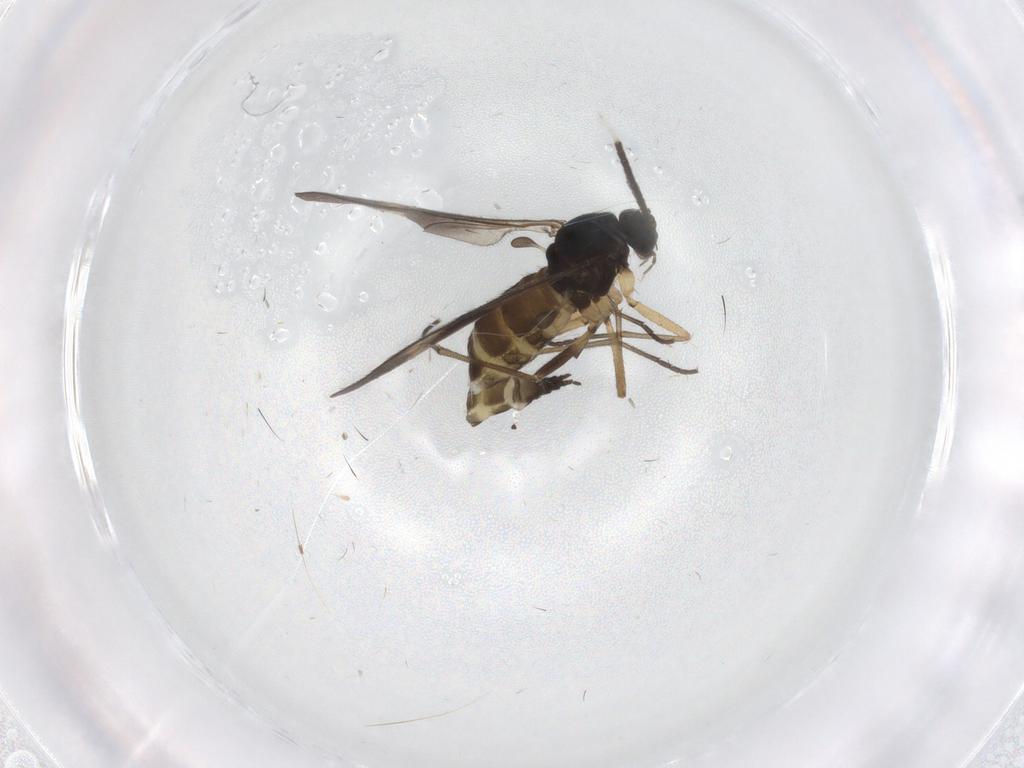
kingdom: Animalia
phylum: Arthropoda
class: Insecta
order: Diptera
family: Sciaridae
